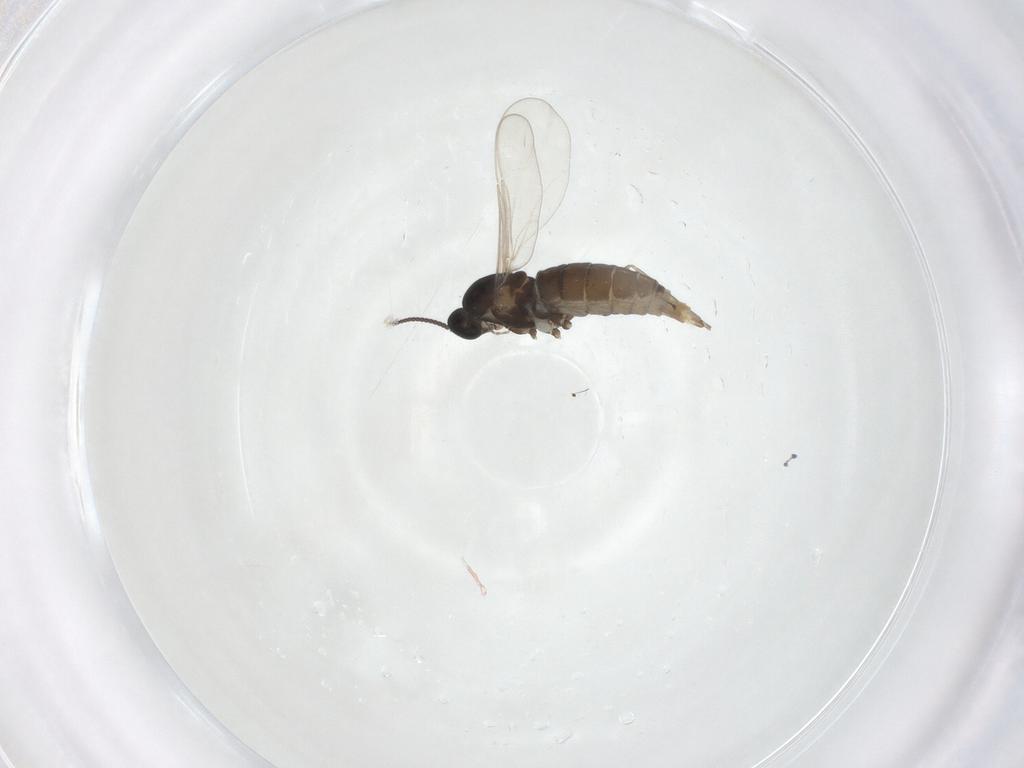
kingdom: Animalia
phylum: Arthropoda
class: Insecta
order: Diptera
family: Cecidomyiidae
